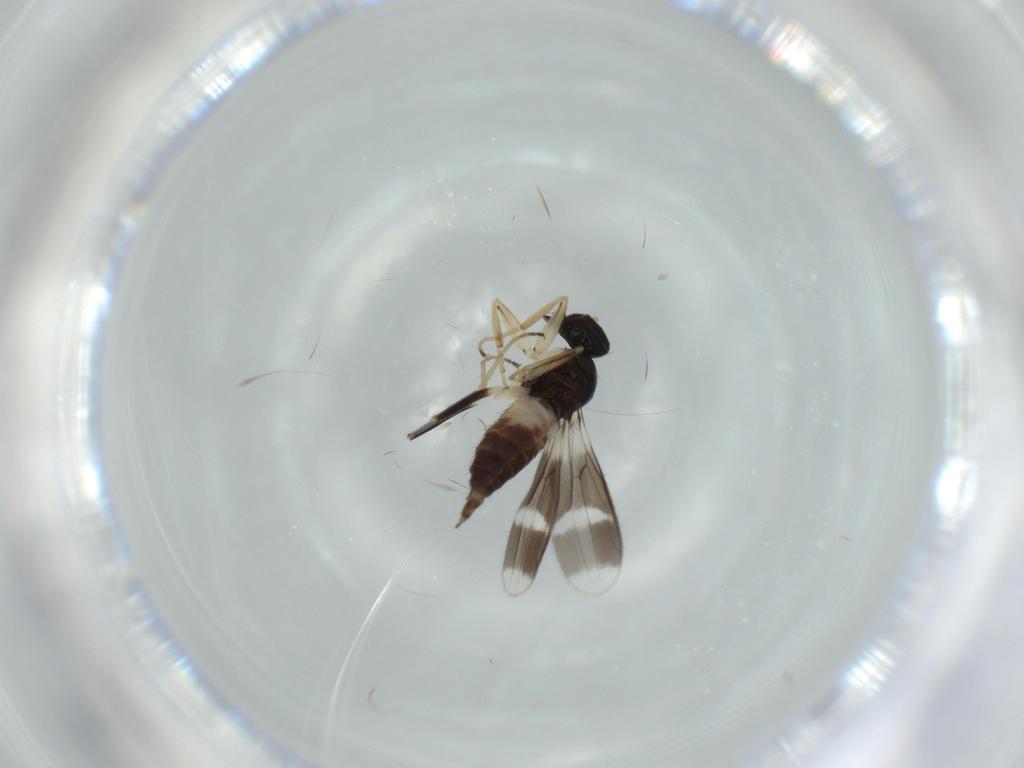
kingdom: Animalia
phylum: Arthropoda
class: Insecta
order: Diptera
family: Hybotidae
